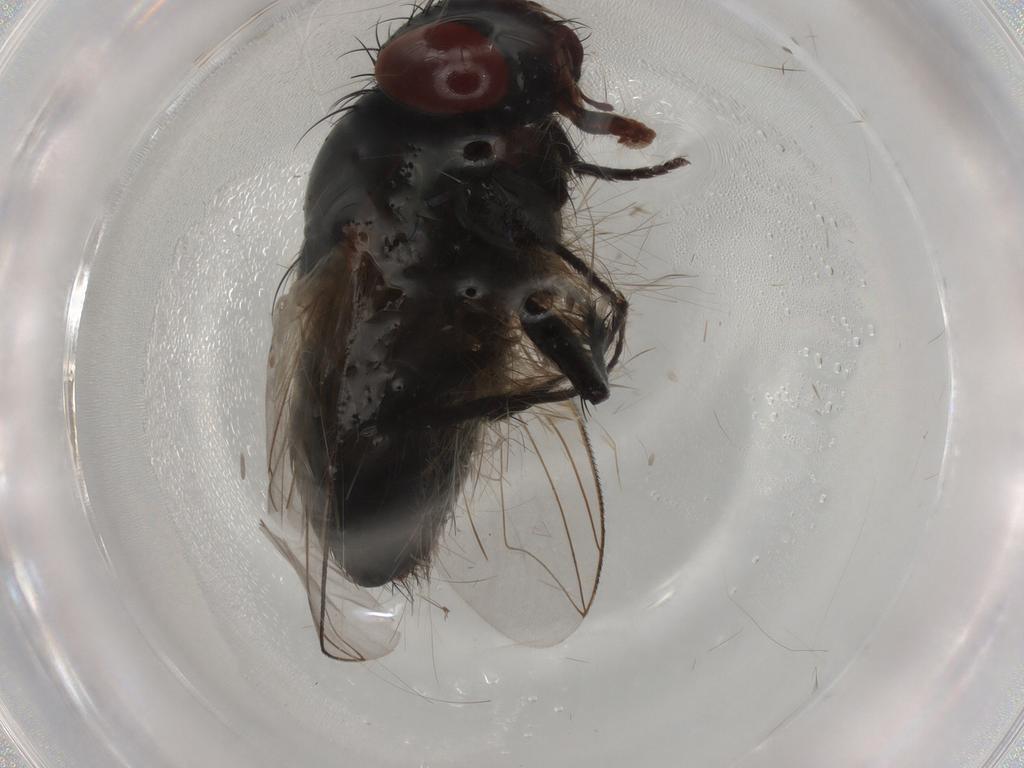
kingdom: Animalia
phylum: Arthropoda
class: Insecta
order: Diptera
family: Sarcophagidae
